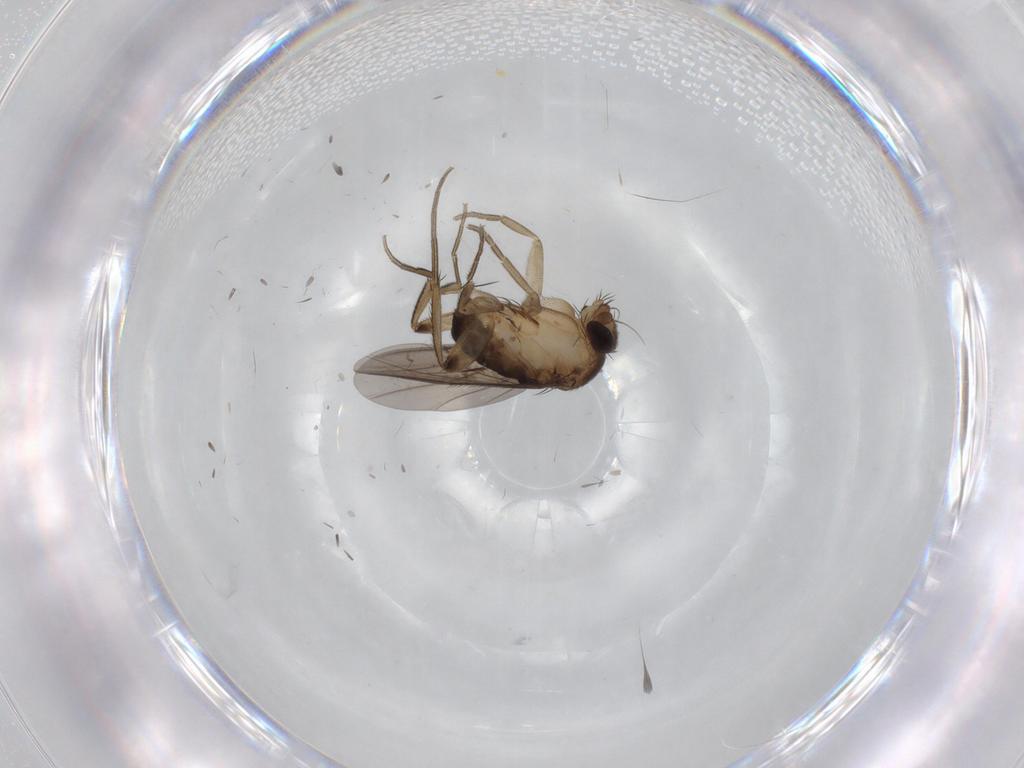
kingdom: Animalia
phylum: Arthropoda
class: Insecta
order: Diptera
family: Phoridae
